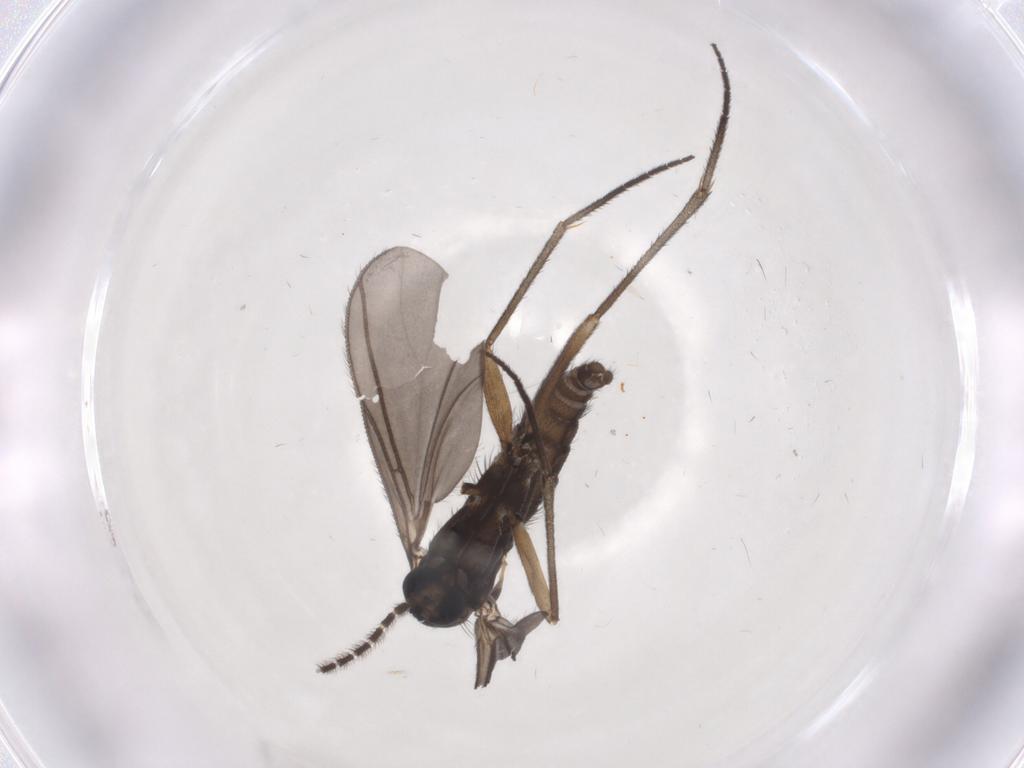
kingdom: Animalia
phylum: Arthropoda
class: Insecta
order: Diptera
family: Sciaridae
